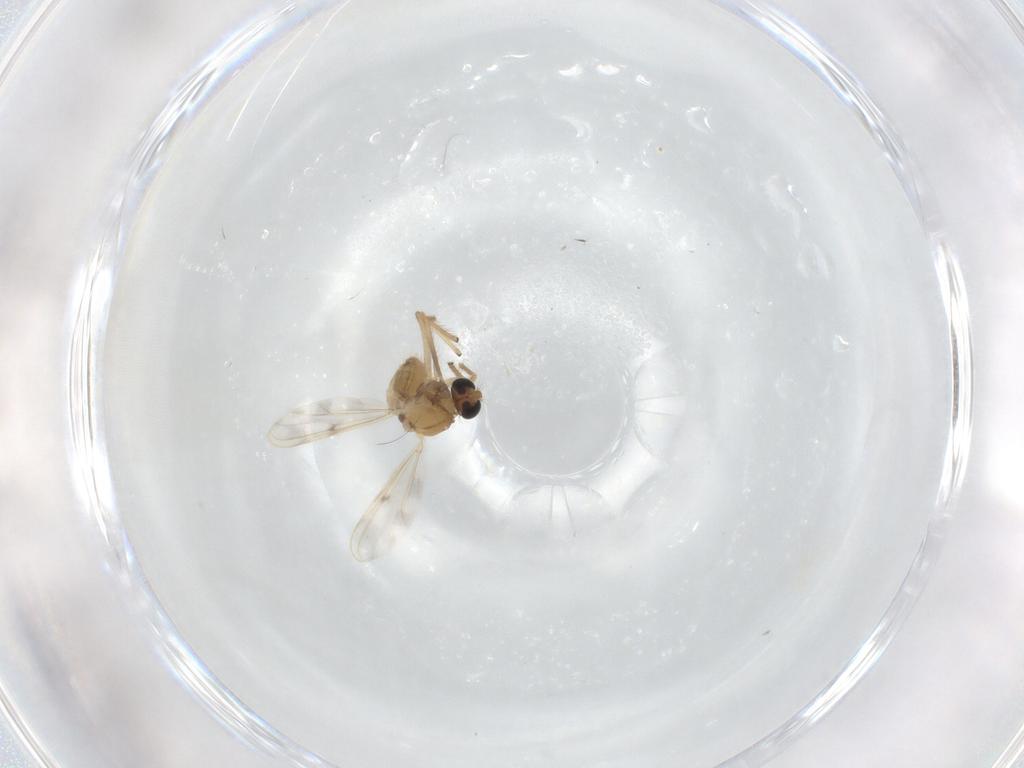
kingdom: Animalia
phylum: Arthropoda
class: Insecta
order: Diptera
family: Chironomidae
